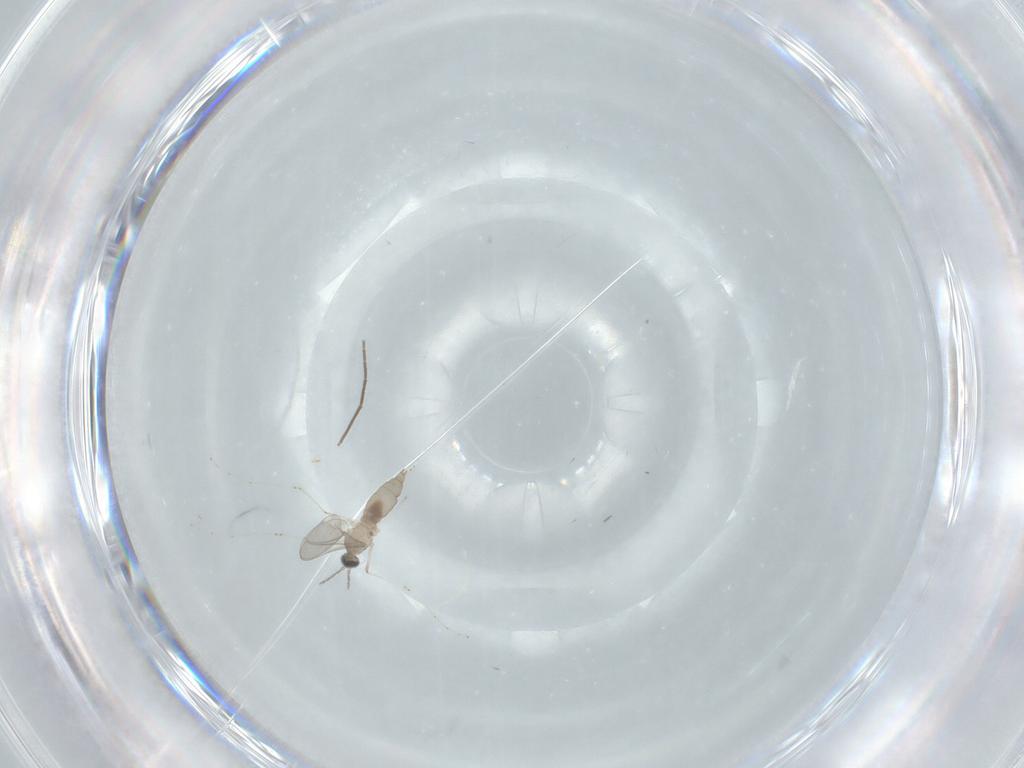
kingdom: Animalia
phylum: Arthropoda
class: Insecta
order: Diptera
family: Cecidomyiidae
